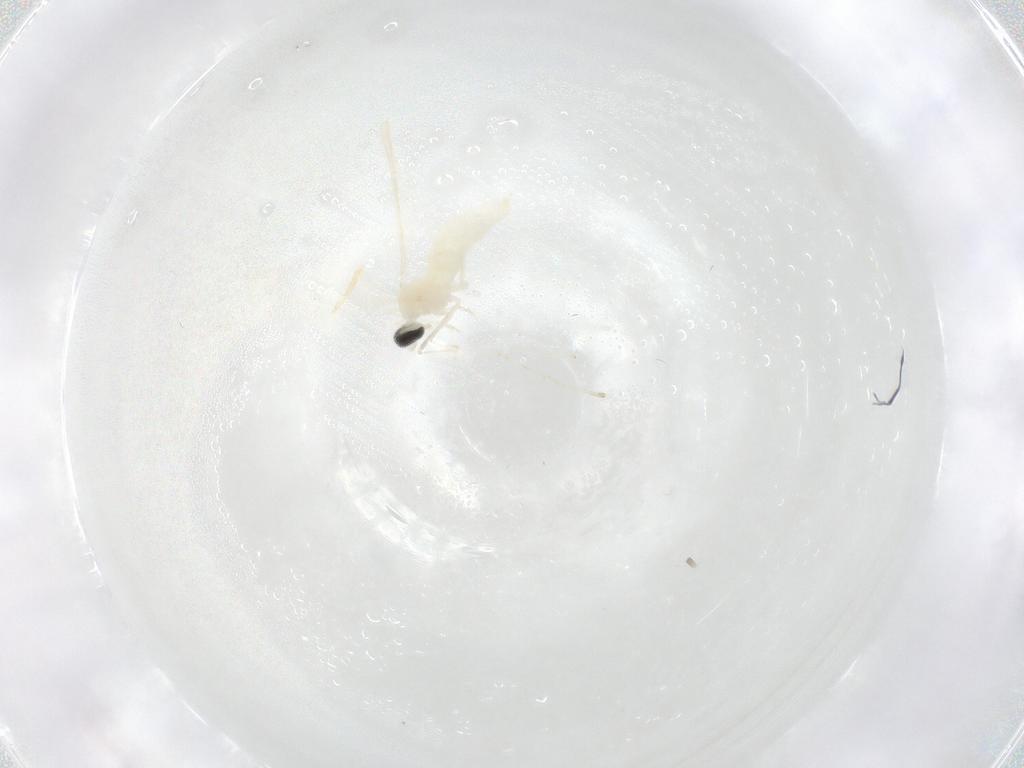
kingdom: Animalia
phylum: Arthropoda
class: Insecta
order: Diptera
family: Cecidomyiidae
